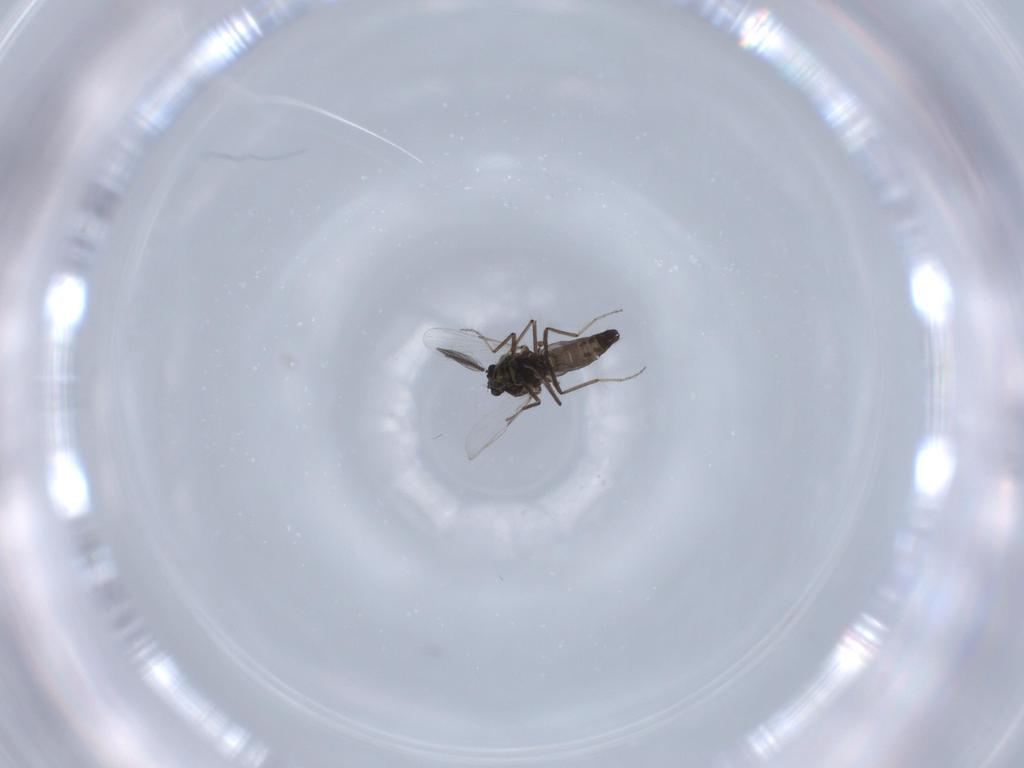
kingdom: Animalia
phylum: Arthropoda
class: Insecta
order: Diptera
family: Ceratopogonidae
